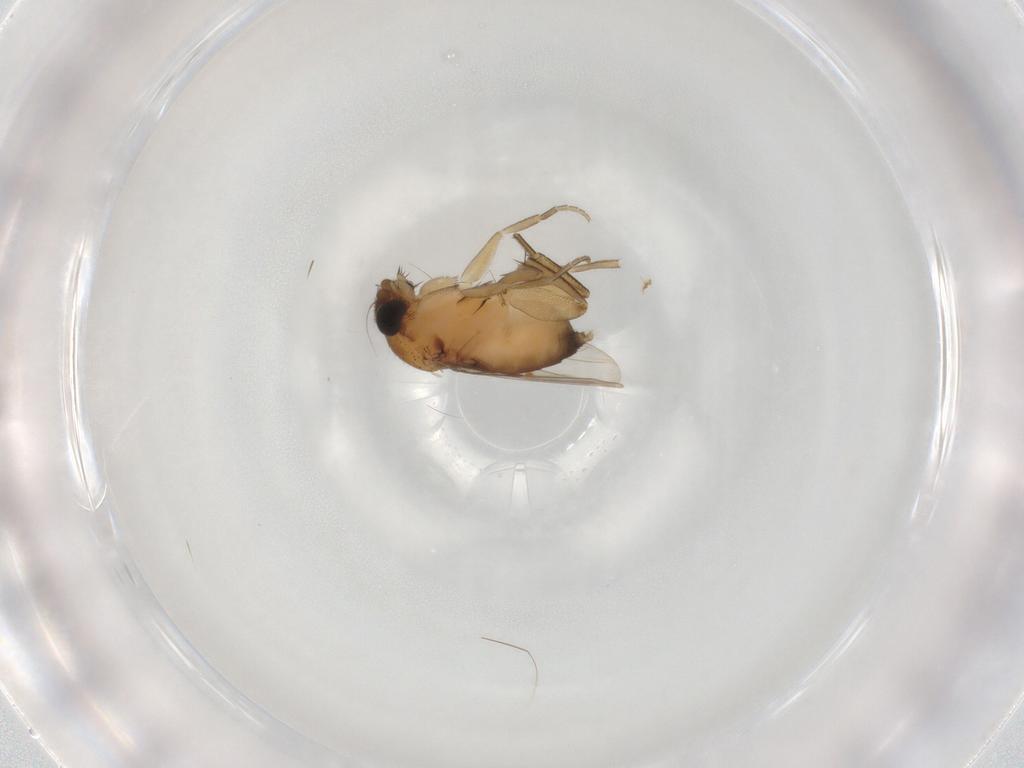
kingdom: Animalia
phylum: Arthropoda
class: Insecta
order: Diptera
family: Phoridae
